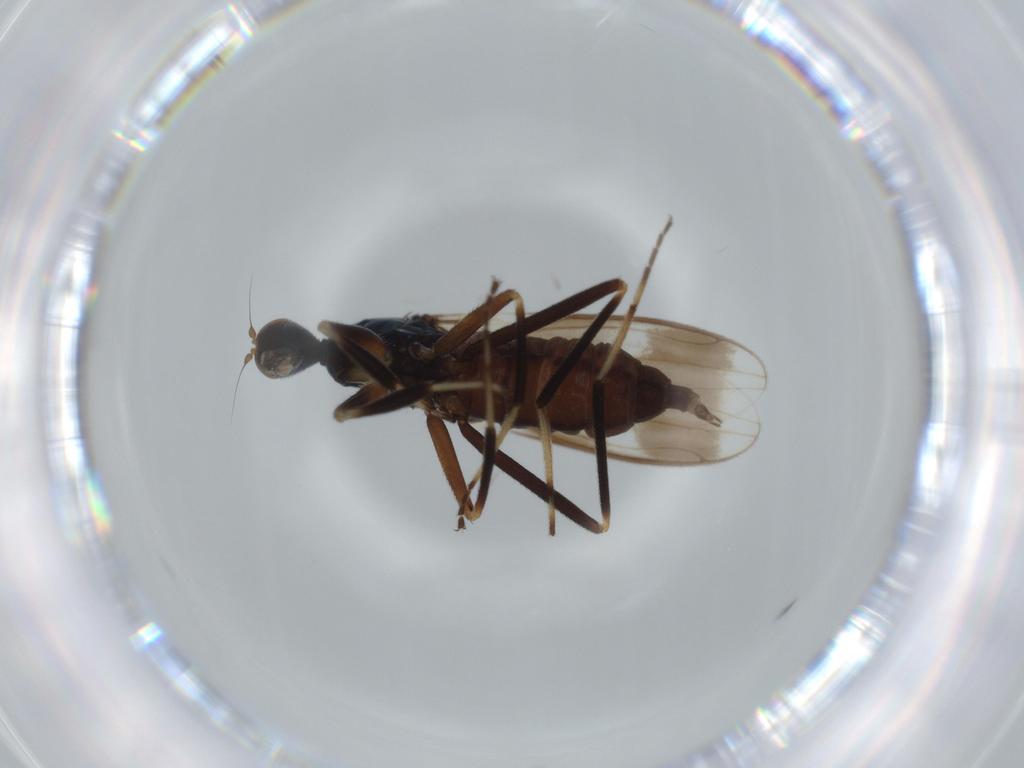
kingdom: Animalia
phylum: Arthropoda
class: Insecta
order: Diptera
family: Hybotidae
